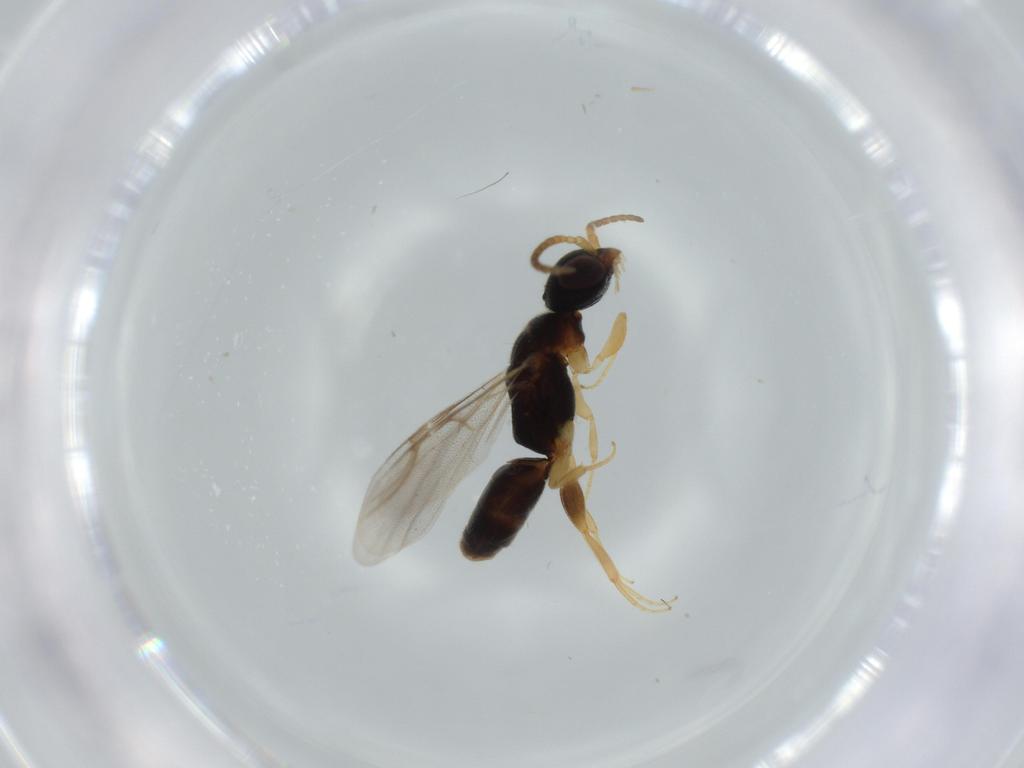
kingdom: Animalia
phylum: Arthropoda
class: Insecta
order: Hymenoptera
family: Bethylidae
